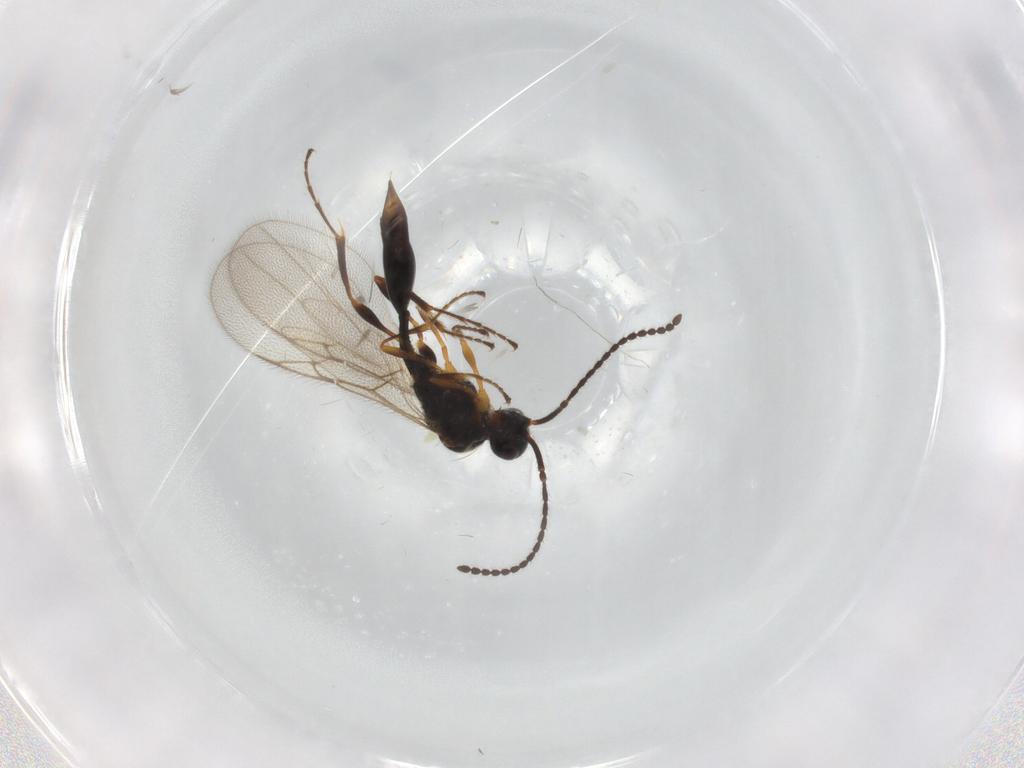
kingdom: Animalia
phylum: Arthropoda
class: Insecta
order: Hymenoptera
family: Diapriidae
